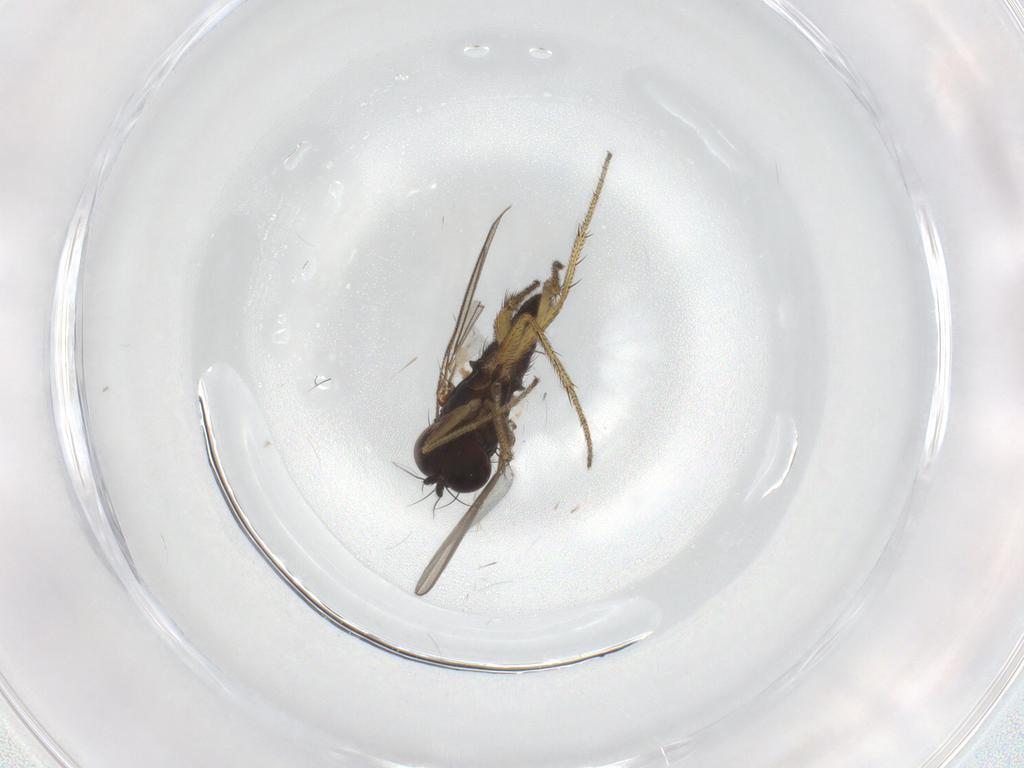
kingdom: Animalia
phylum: Arthropoda
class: Insecta
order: Diptera
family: Chironomidae
